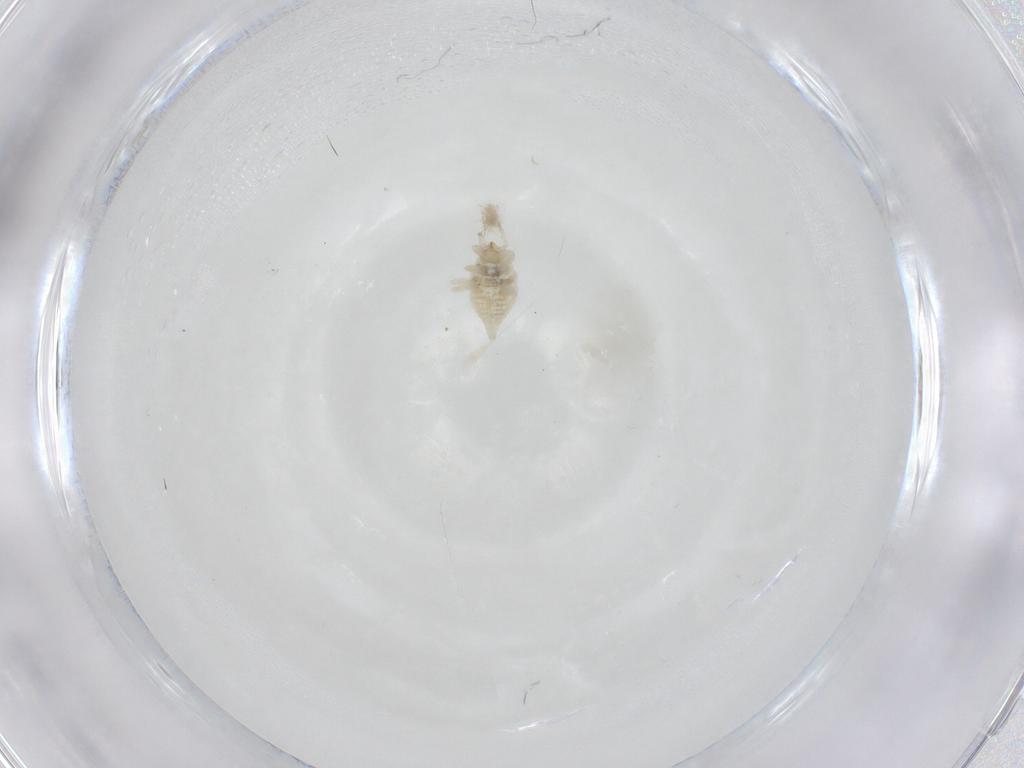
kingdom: Animalia
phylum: Arthropoda
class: Insecta
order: Neuroptera
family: Coniopterygidae
